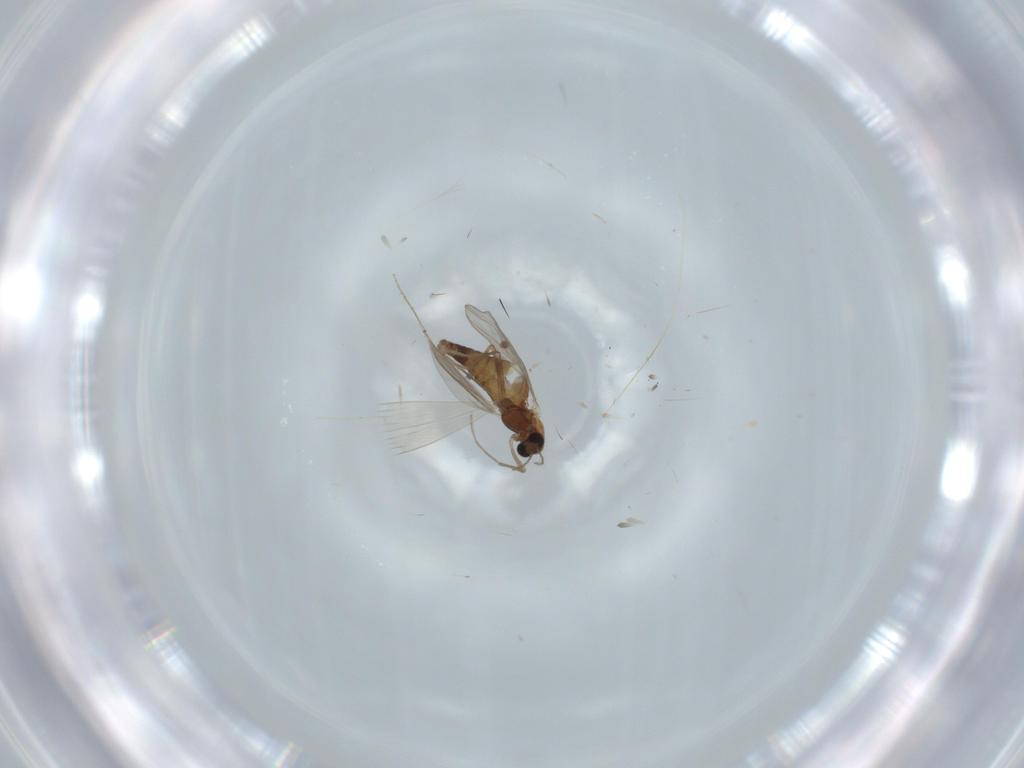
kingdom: Animalia
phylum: Arthropoda
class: Insecta
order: Diptera
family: Chironomidae
